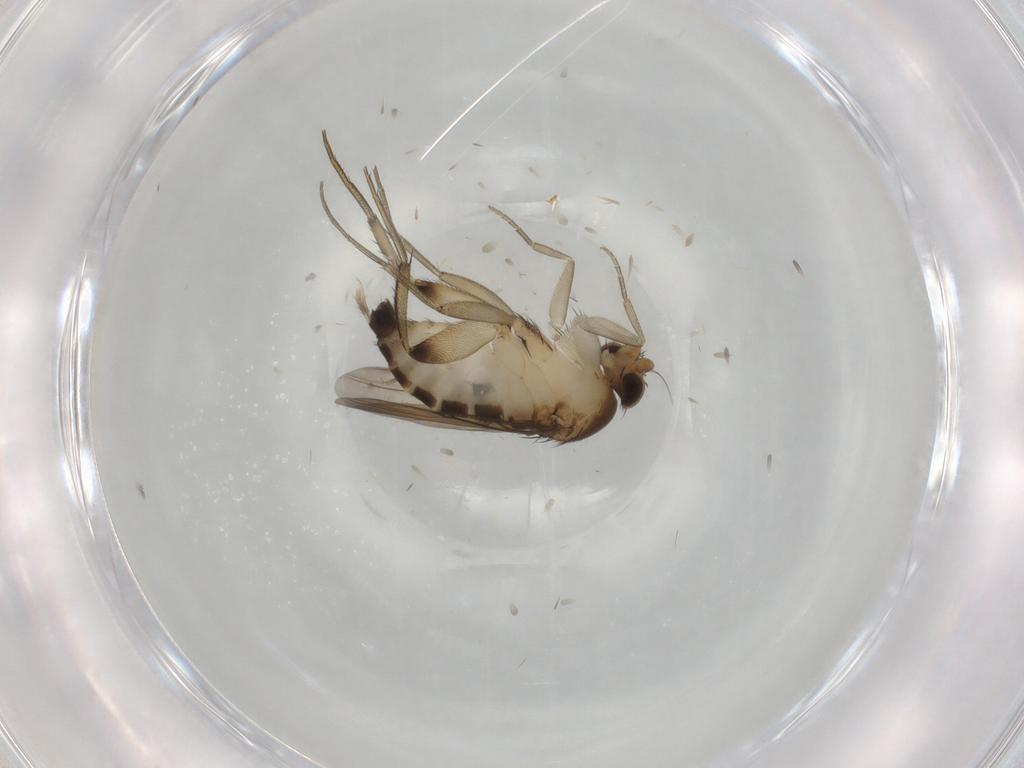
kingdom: Animalia
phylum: Arthropoda
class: Insecta
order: Diptera
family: Phoridae
